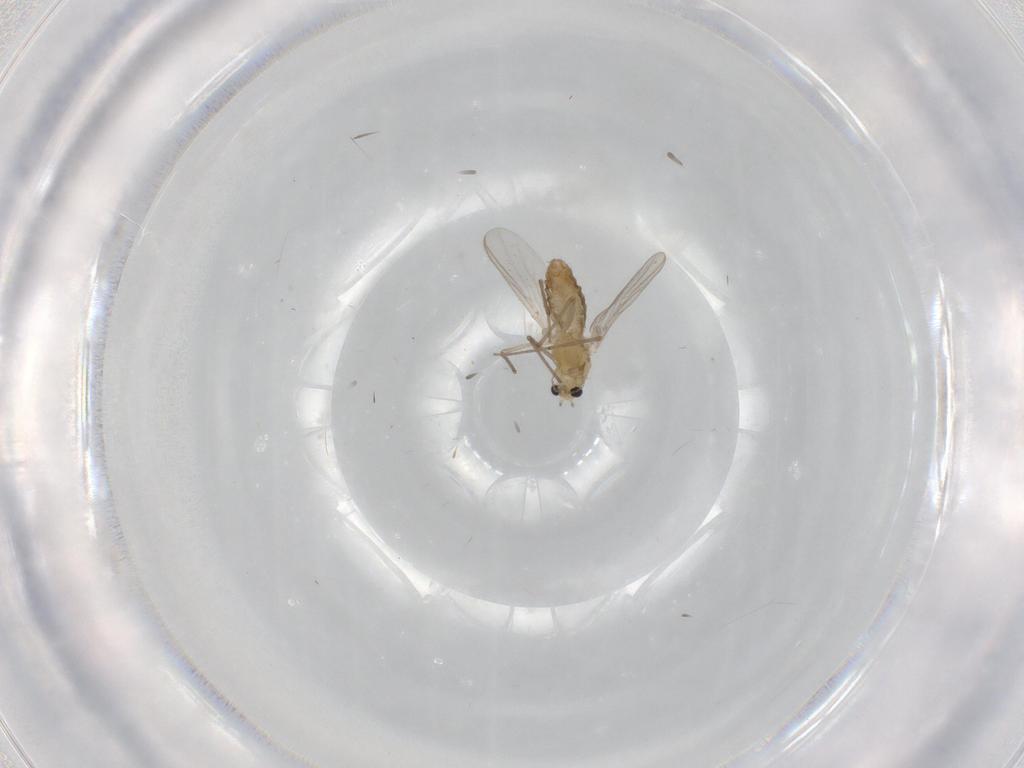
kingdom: Animalia
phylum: Arthropoda
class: Insecta
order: Diptera
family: Chironomidae
